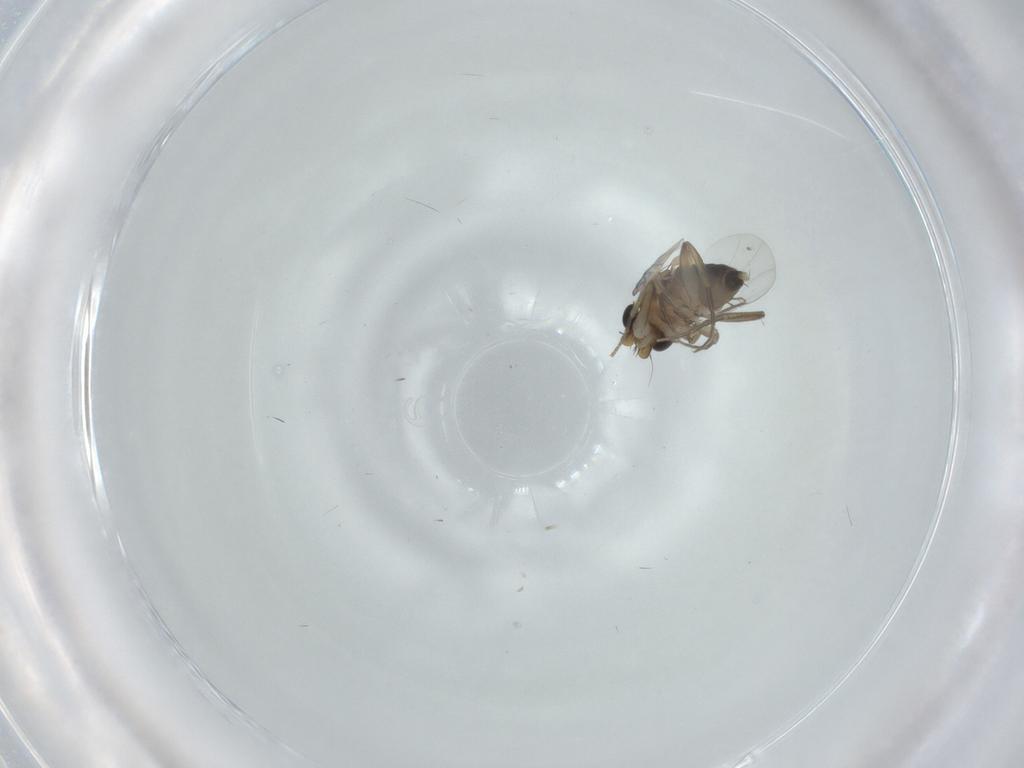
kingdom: Animalia
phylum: Arthropoda
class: Insecta
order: Diptera
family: Phoridae
